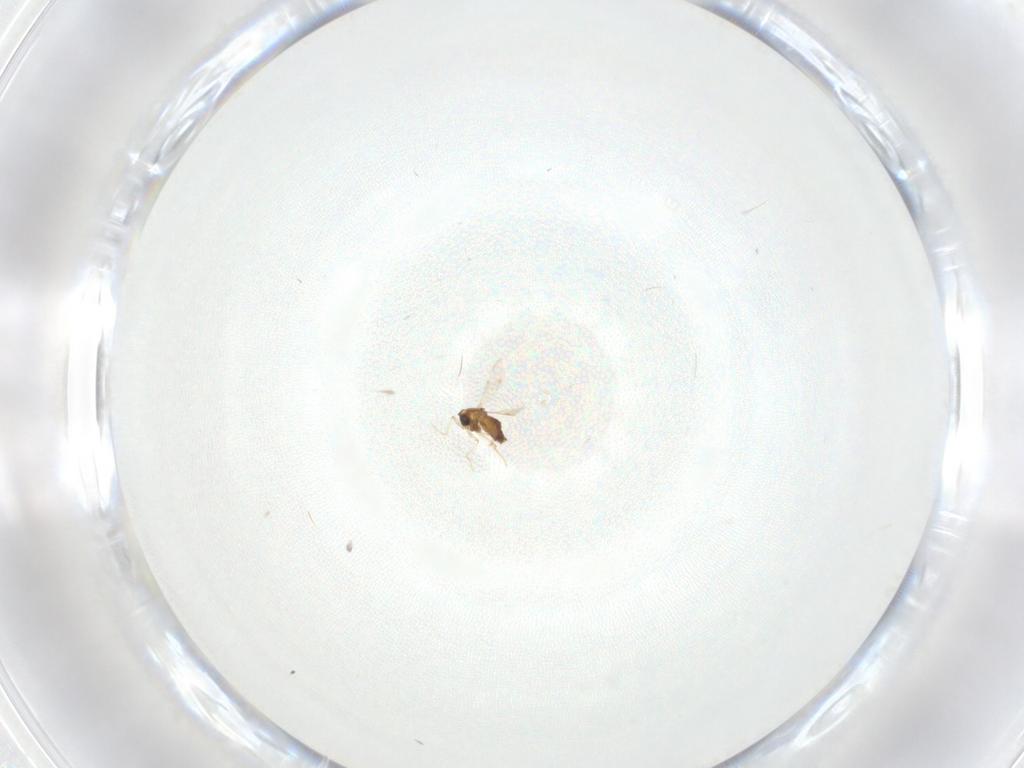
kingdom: Animalia
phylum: Arthropoda
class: Insecta
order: Diptera
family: Chironomidae
